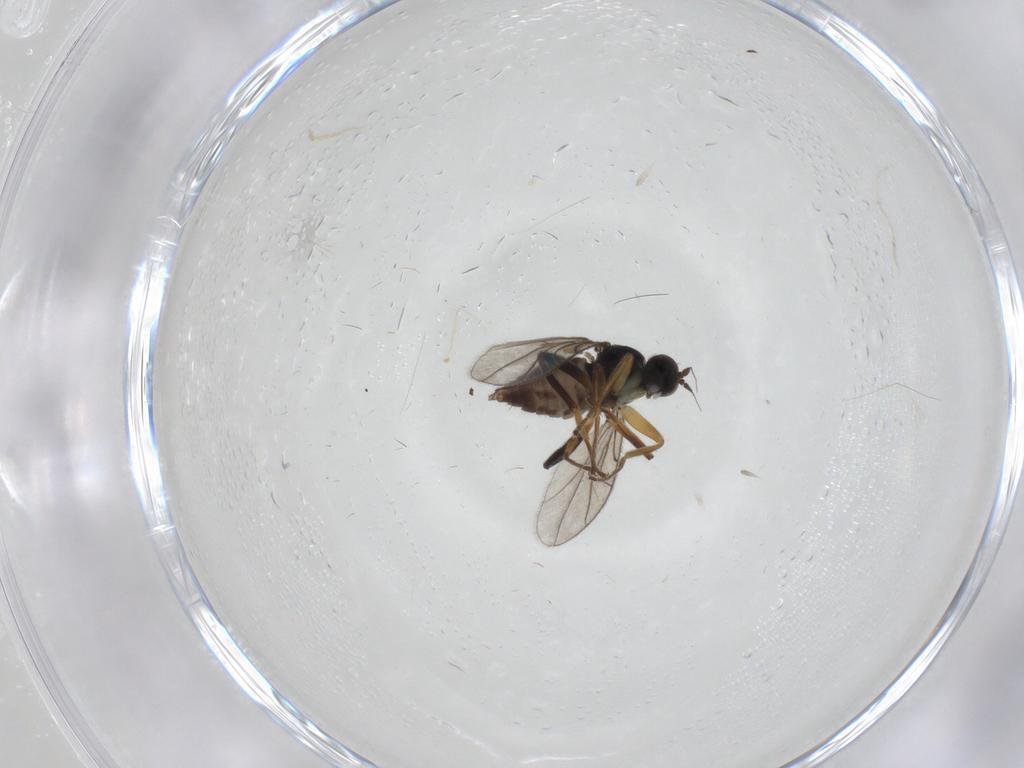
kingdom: Animalia
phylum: Arthropoda
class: Insecta
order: Diptera
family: Hybotidae
